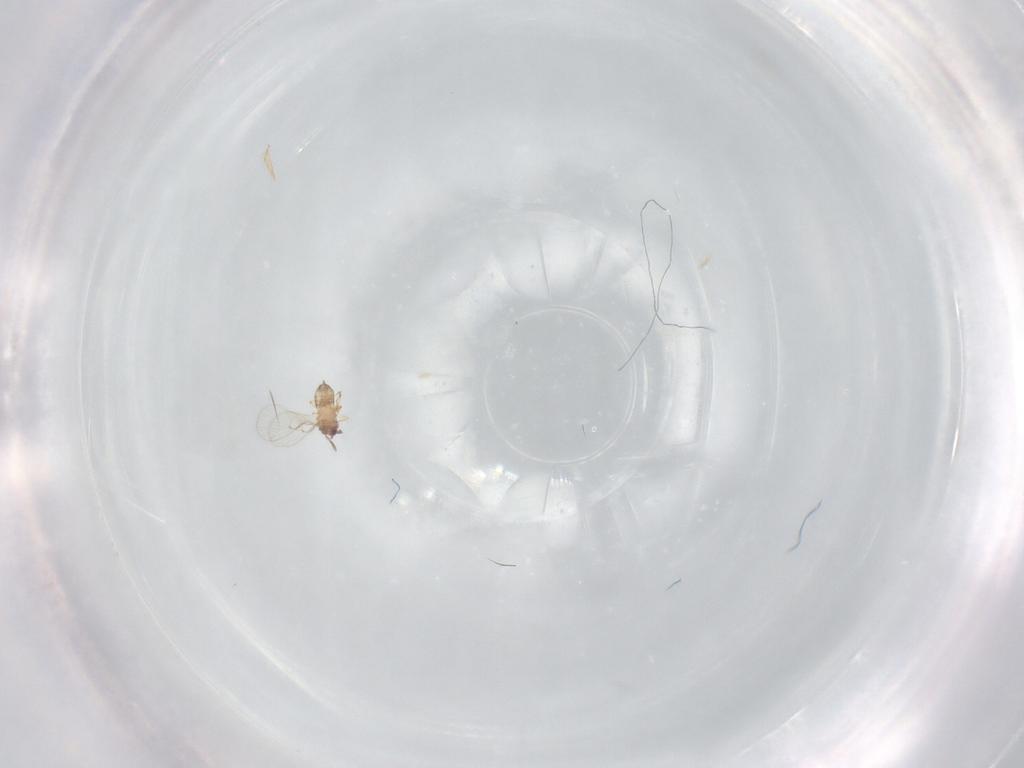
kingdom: Animalia
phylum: Arthropoda
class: Insecta
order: Hymenoptera
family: Trichogrammatidae
